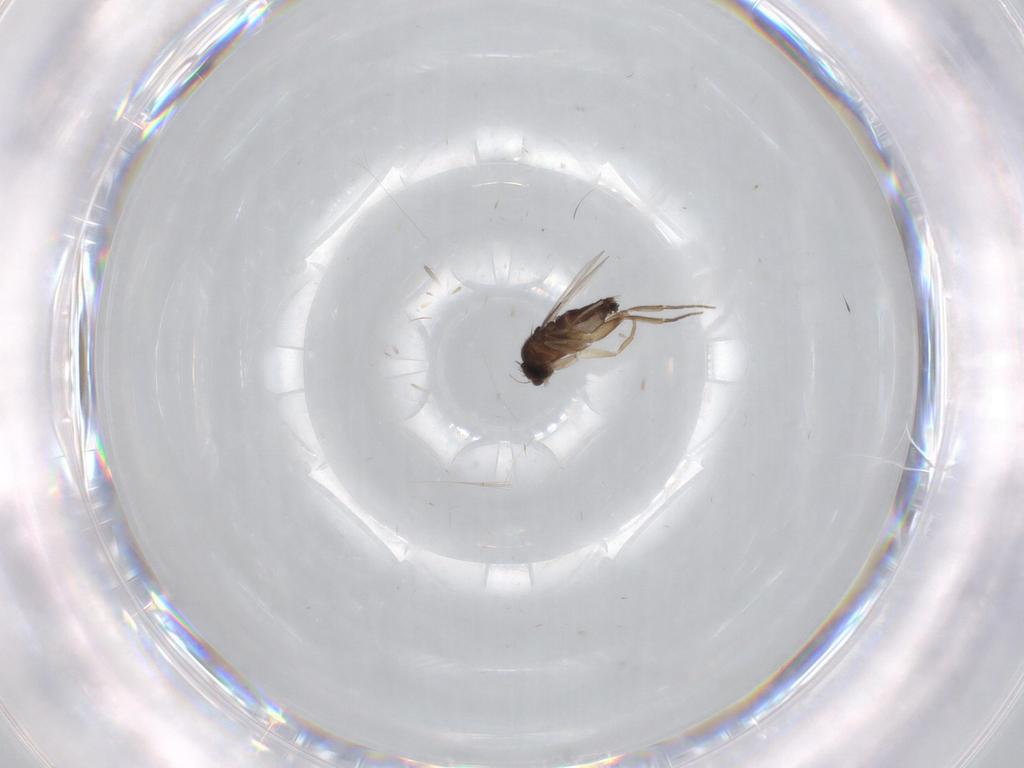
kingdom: Animalia
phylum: Arthropoda
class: Insecta
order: Diptera
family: Phoridae
